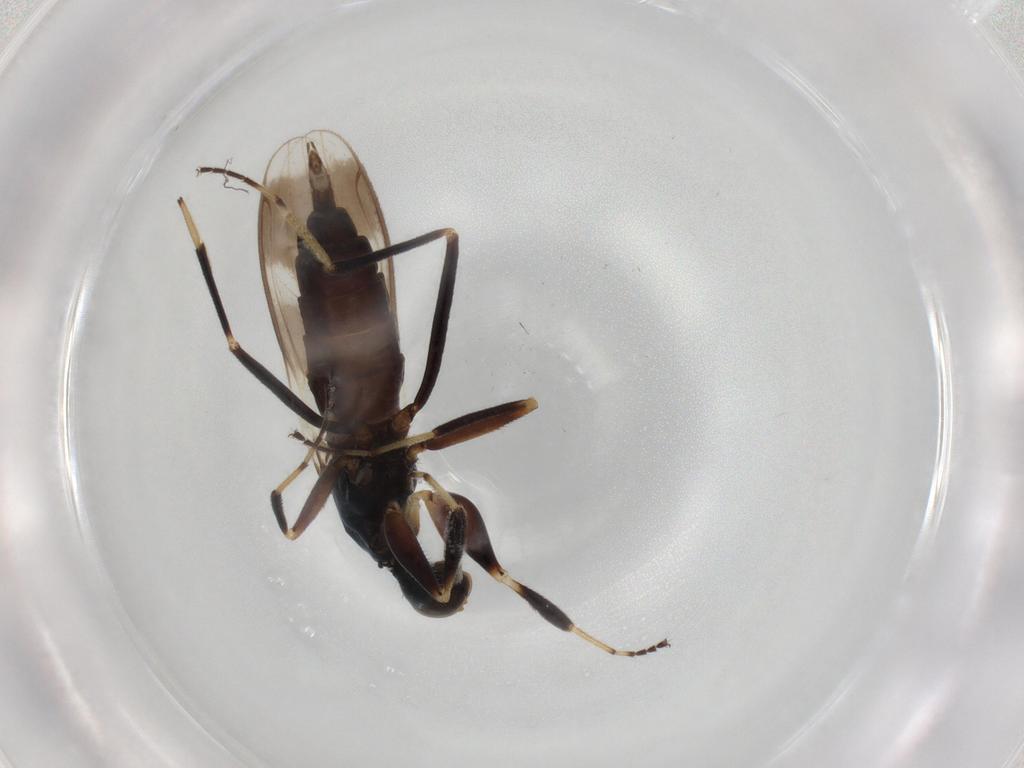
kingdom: Animalia
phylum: Arthropoda
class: Insecta
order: Diptera
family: Hybotidae
